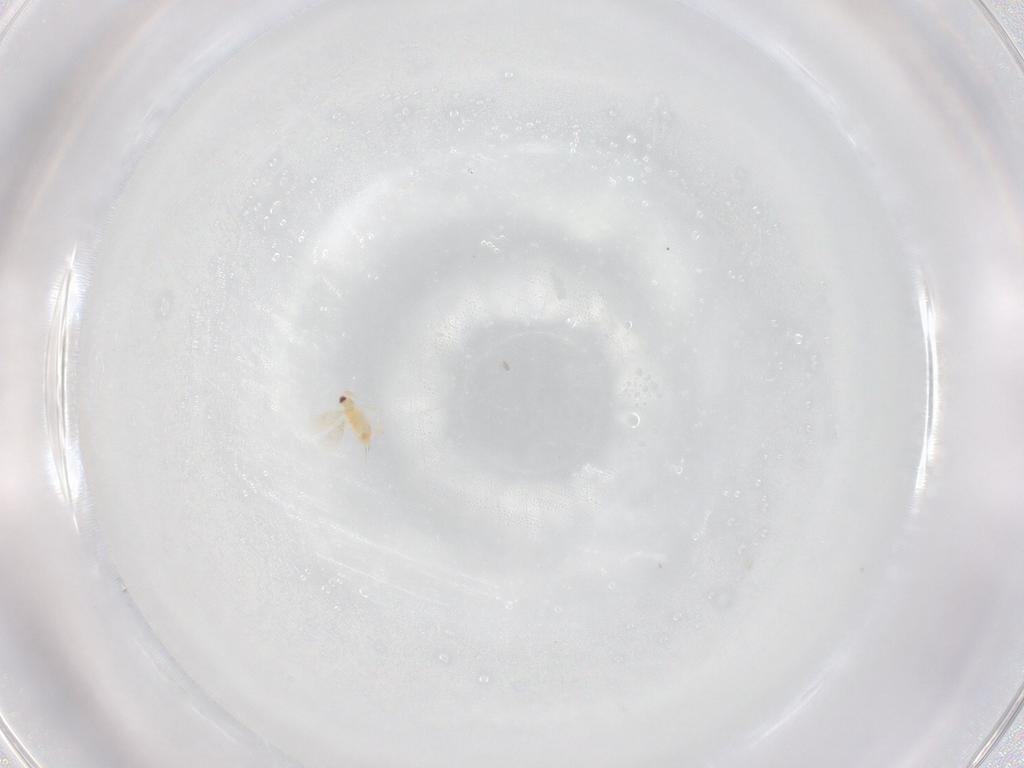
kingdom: Animalia
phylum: Arthropoda
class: Insecta
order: Hymenoptera
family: Aphelinidae
